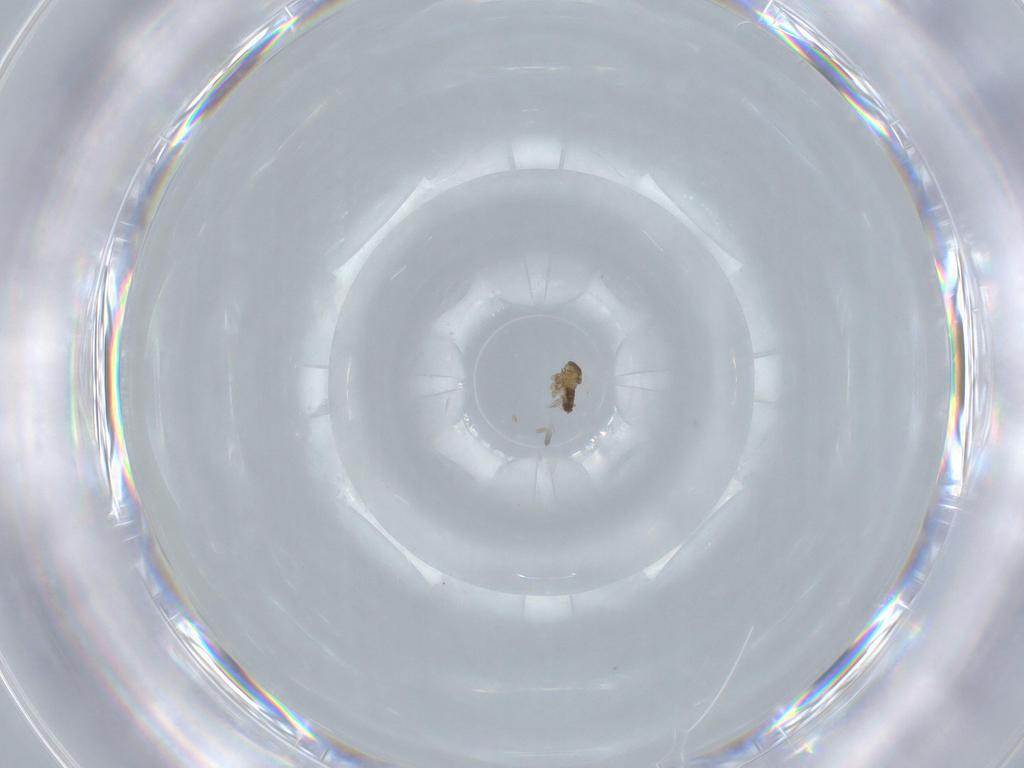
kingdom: Animalia
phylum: Arthropoda
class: Insecta
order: Diptera
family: Cecidomyiidae
